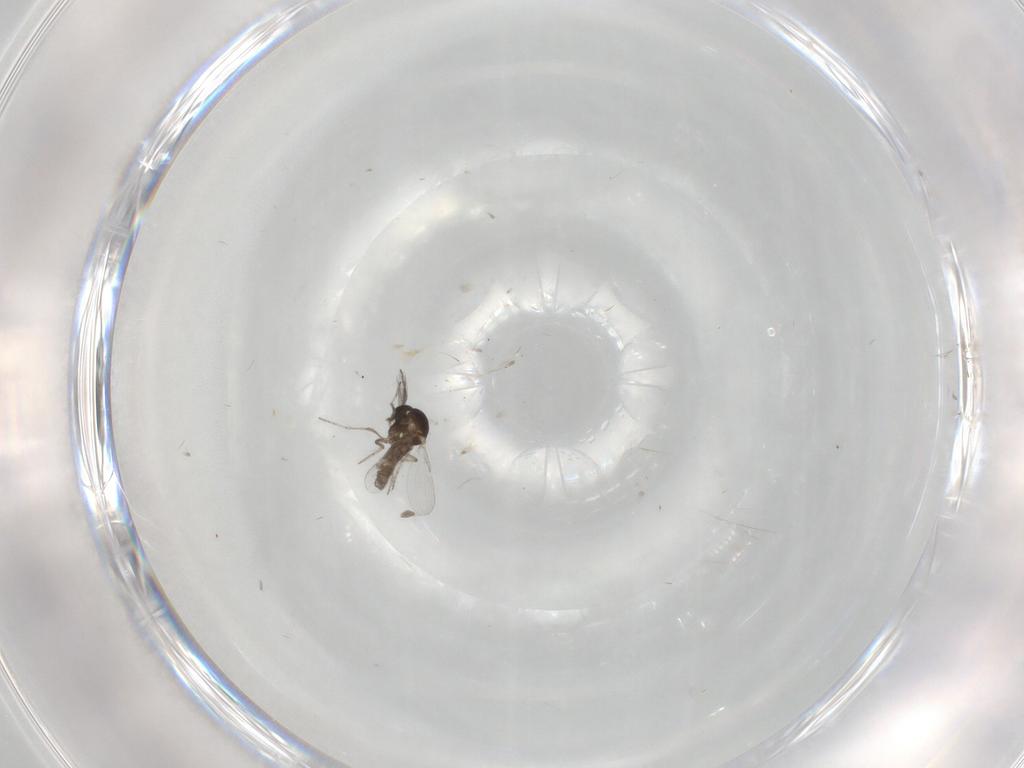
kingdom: Animalia
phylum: Arthropoda
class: Insecta
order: Diptera
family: Ceratopogonidae
